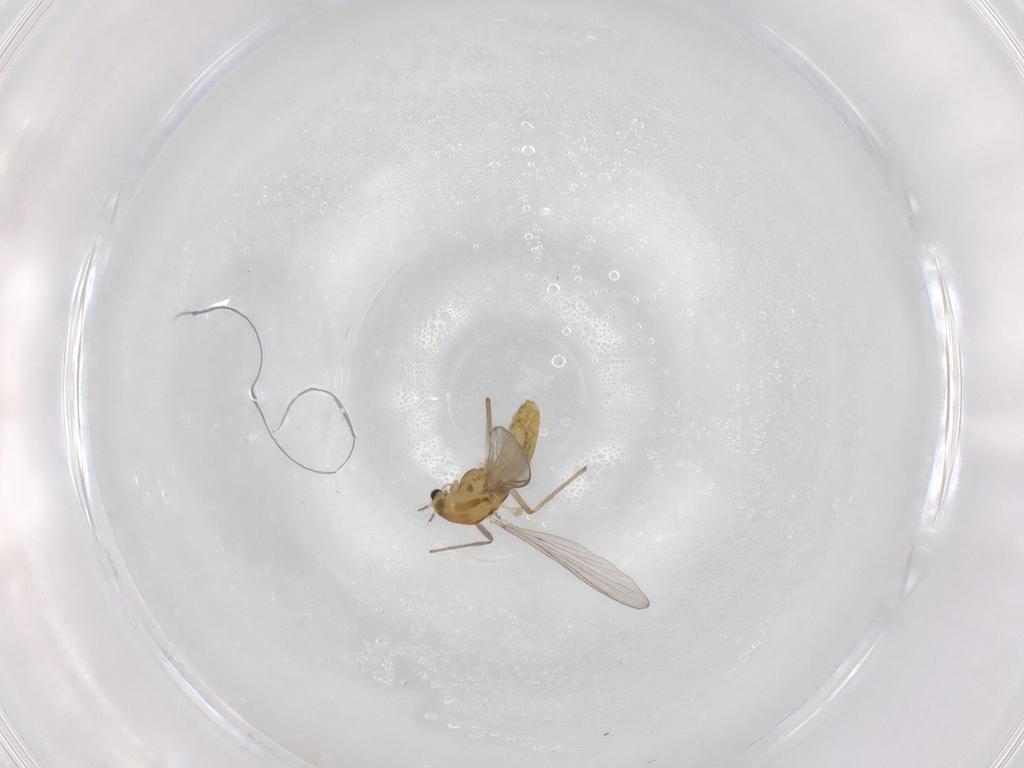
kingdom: Animalia
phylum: Arthropoda
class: Insecta
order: Diptera
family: Chironomidae
